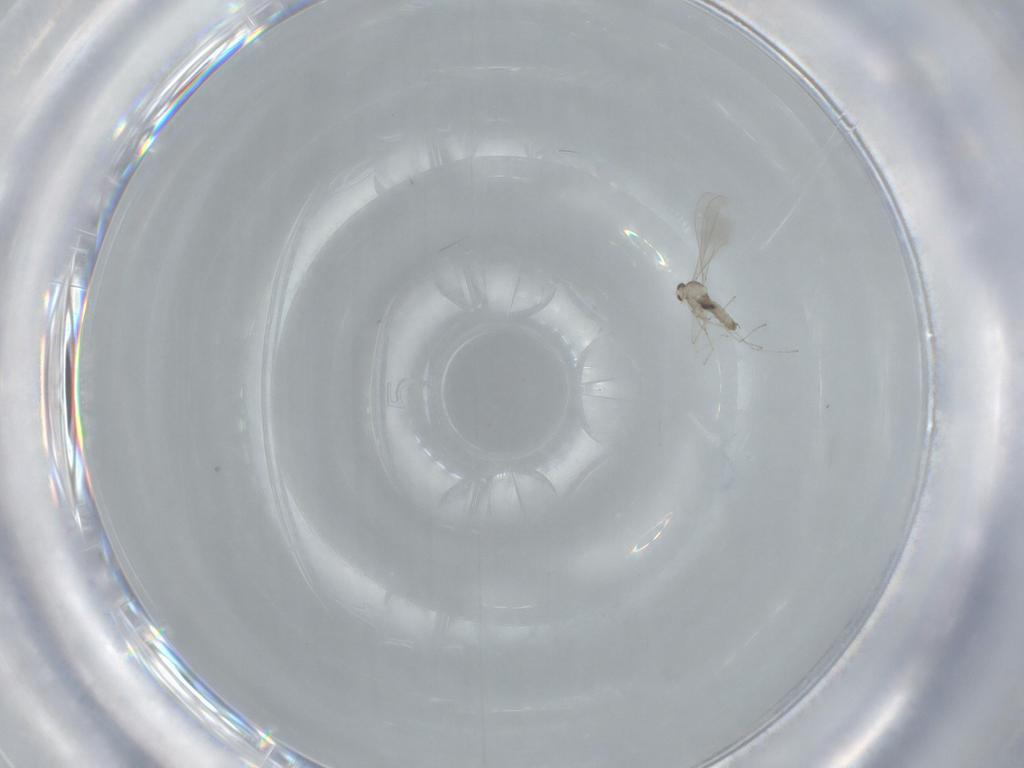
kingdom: Animalia
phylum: Arthropoda
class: Insecta
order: Diptera
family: Cecidomyiidae
